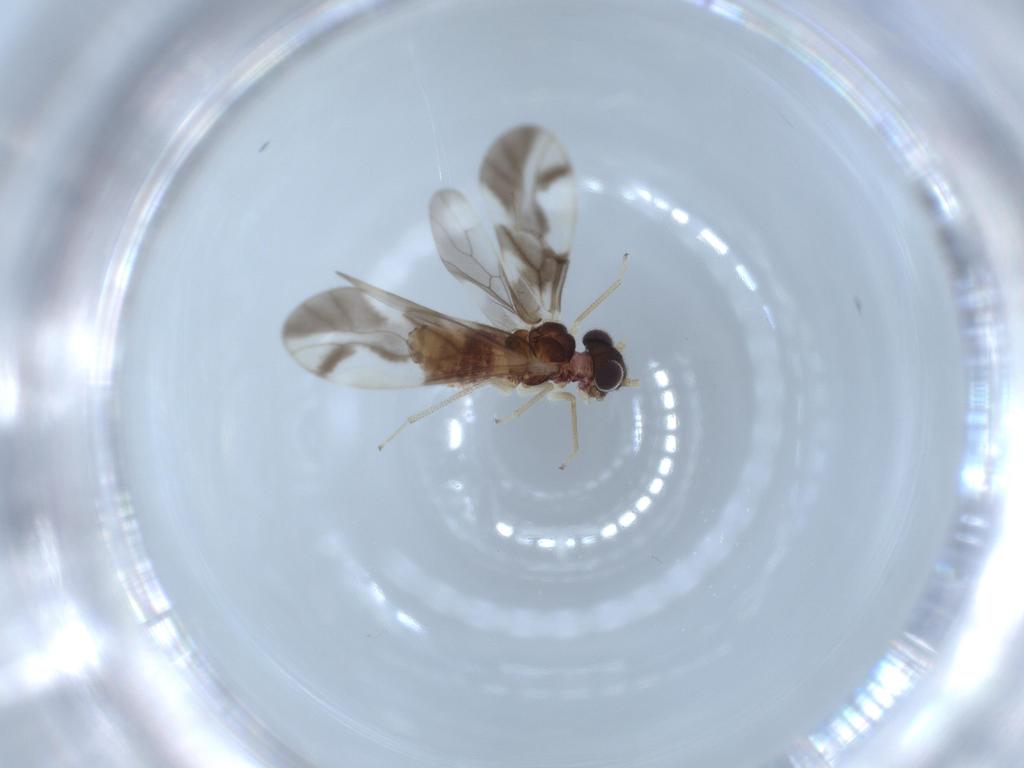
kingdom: Animalia
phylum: Arthropoda
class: Insecta
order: Psocodea
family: Caeciliusidae
